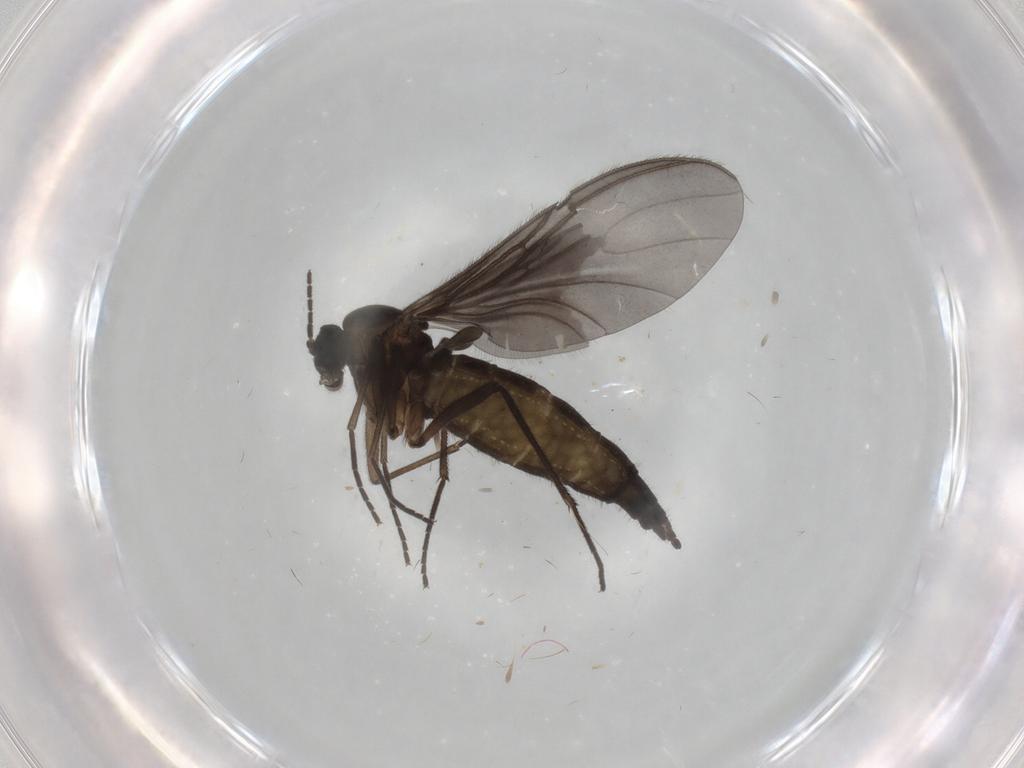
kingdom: Animalia
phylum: Arthropoda
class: Insecta
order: Diptera
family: Cecidomyiidae
